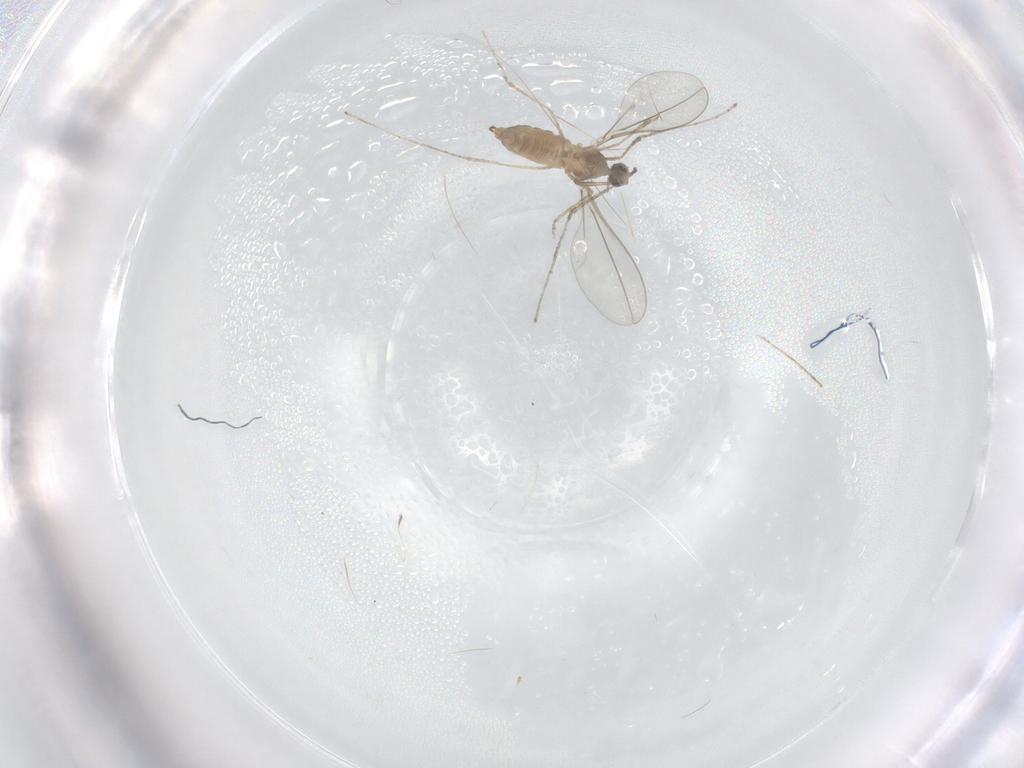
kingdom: Animalia
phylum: Arthropoda
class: Insecta
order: Diptera
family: Cecidomyiidae
